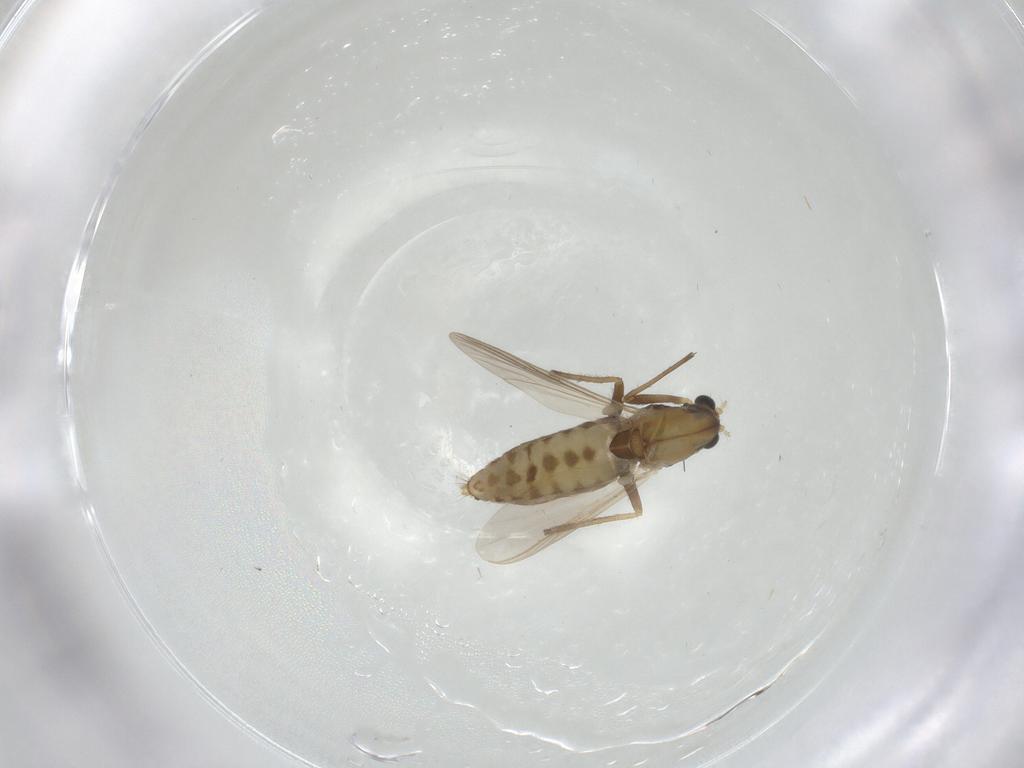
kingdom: Animalia
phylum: Arthropoda
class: Insecta
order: Diptera
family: Chironomidae
